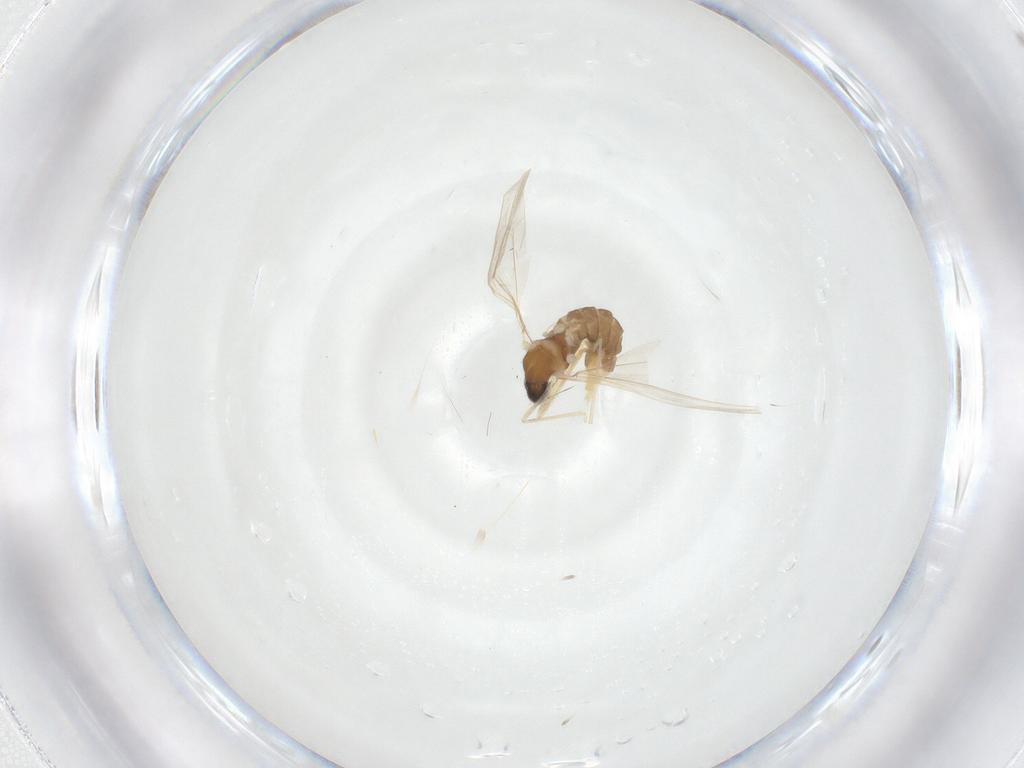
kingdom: Animalia
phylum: Arthropoda
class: Insecta
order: Diptera
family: Cecidomyiidae
